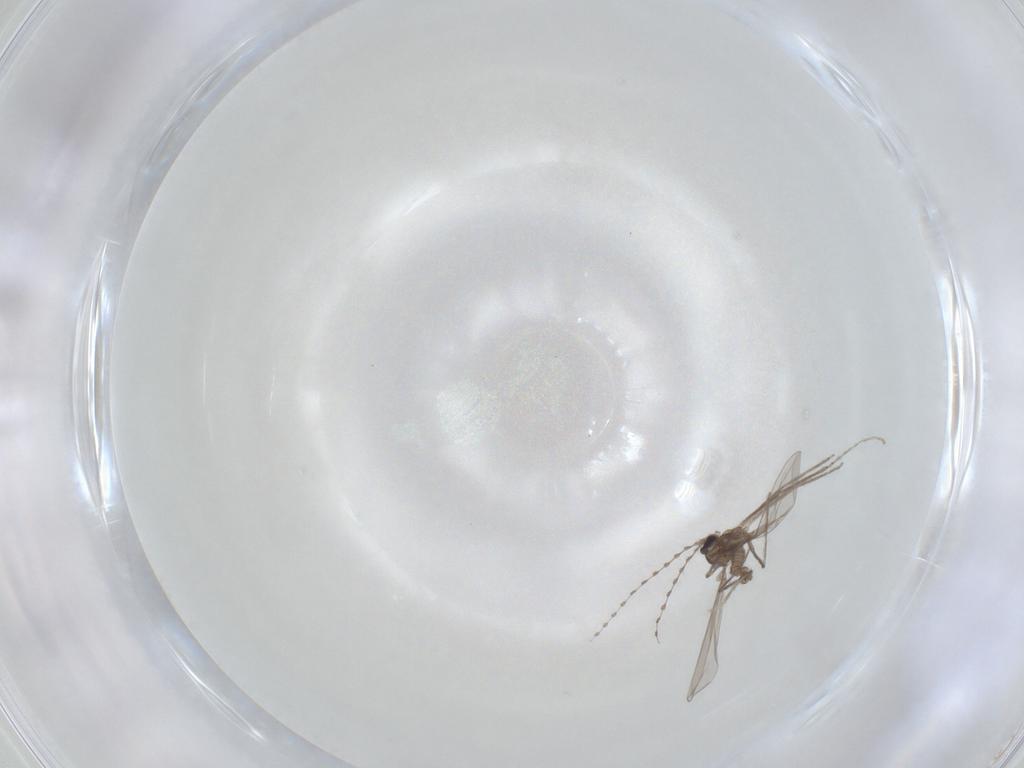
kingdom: Animalia
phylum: Arthropoda
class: Insecta
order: Diptera
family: Cecidomyiidae
